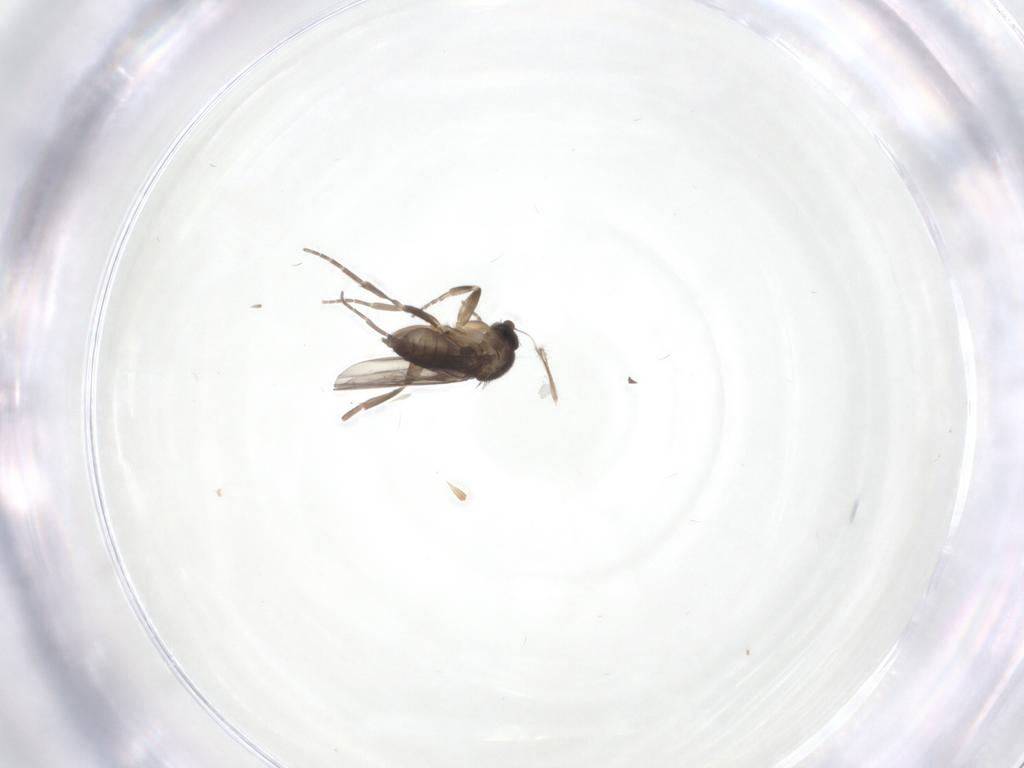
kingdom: Animalia
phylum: Arthropoda
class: Insecta
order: Diptera
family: Phoridae
